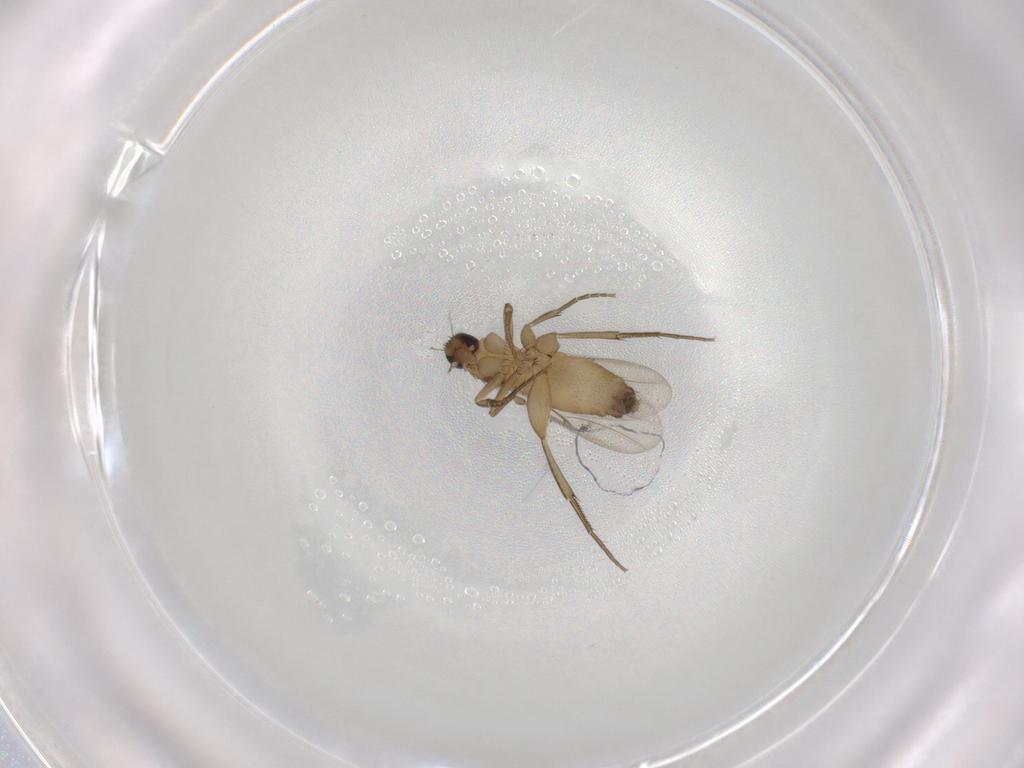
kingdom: Animalia
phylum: Arthropoda
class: Insecta
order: Diptera
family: Phoridae
